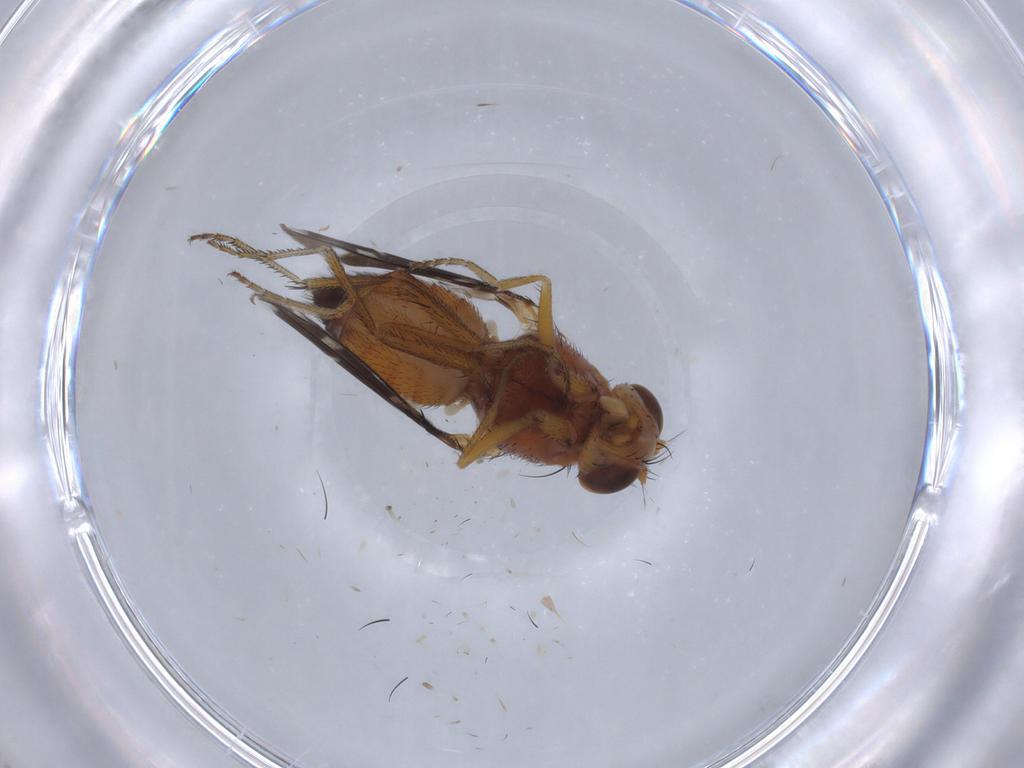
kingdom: Animalia
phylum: Arthropoda
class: Insecta
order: Diptera
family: Ephydridae
